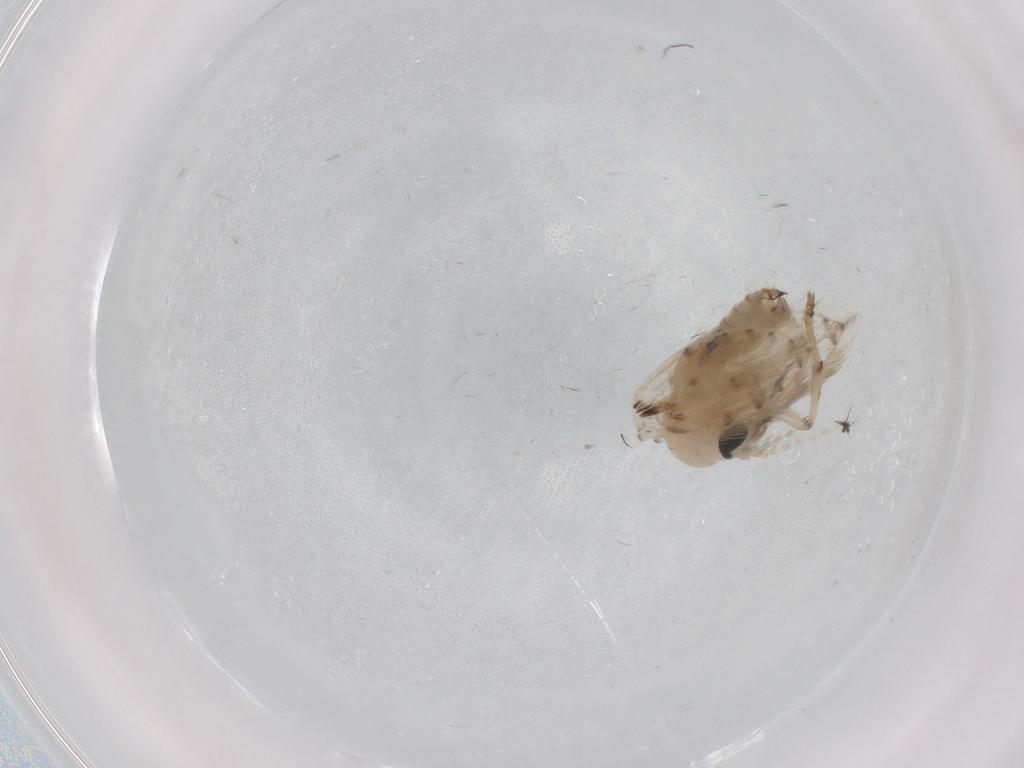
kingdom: Animalia
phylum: Arthropoda
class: Insecta
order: Diptera
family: Psychodidae
